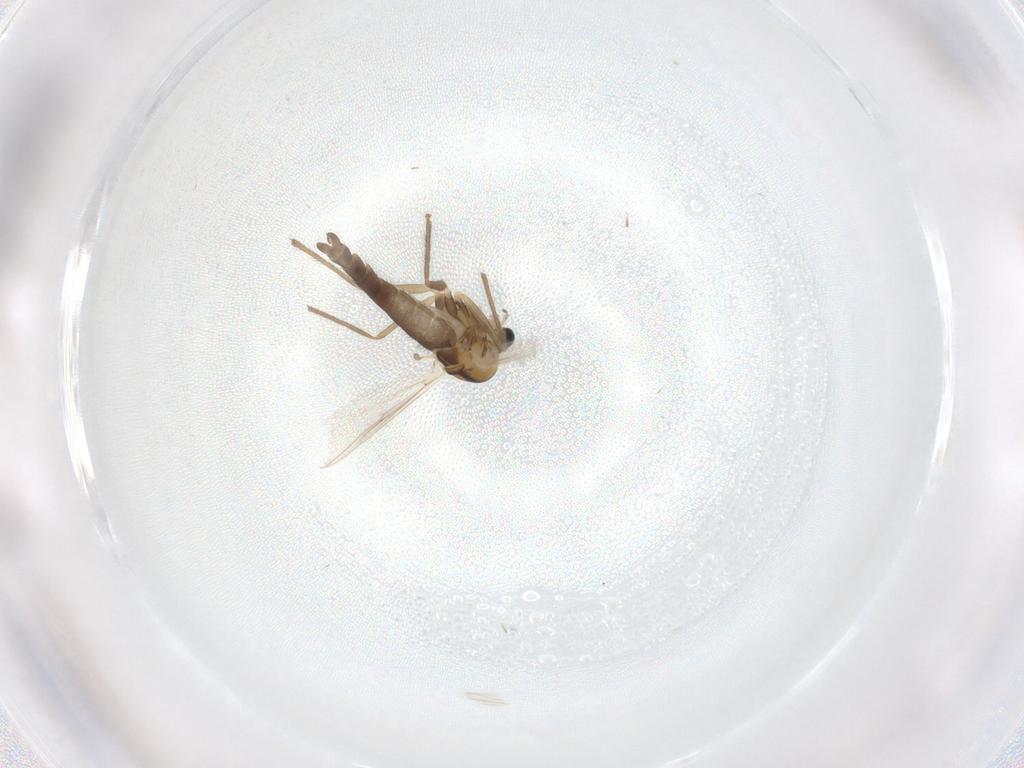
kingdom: Animalia
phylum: Arthropoda
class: Insecta
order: Diptera
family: Chironomidae
